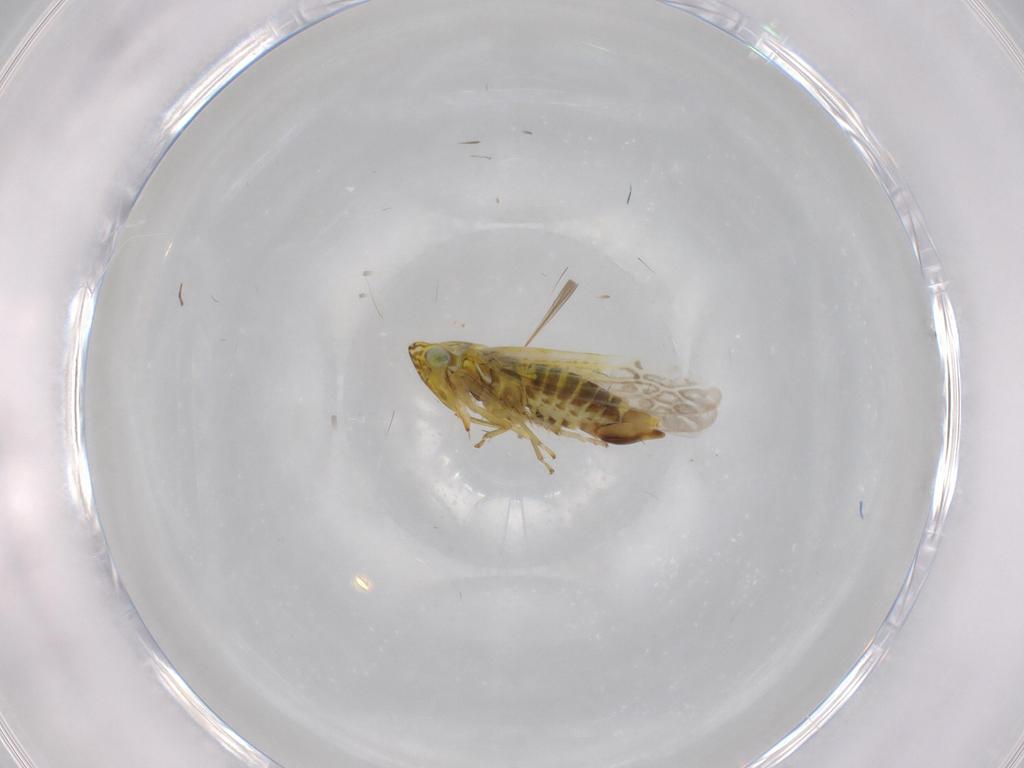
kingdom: Animalia
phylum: Arthropoda
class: Insecta
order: Hemiptera
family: Cicadellidae
